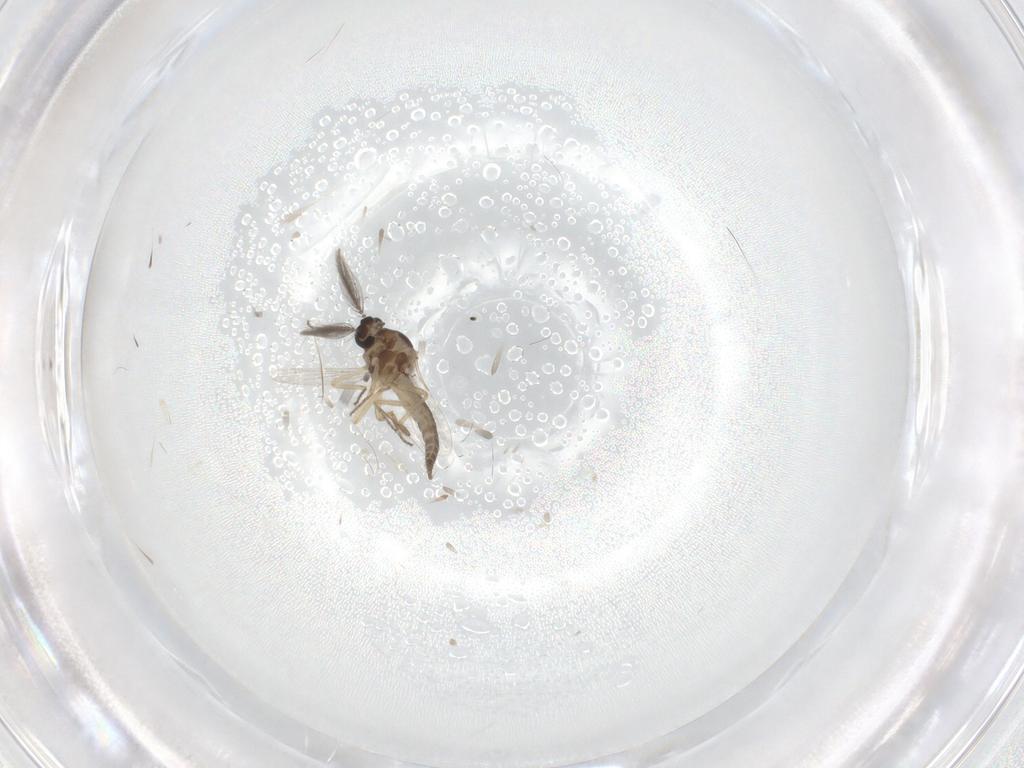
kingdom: Animalia
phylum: Arthropoda
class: Insecta
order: Diptera
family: Ceratopogonidae
